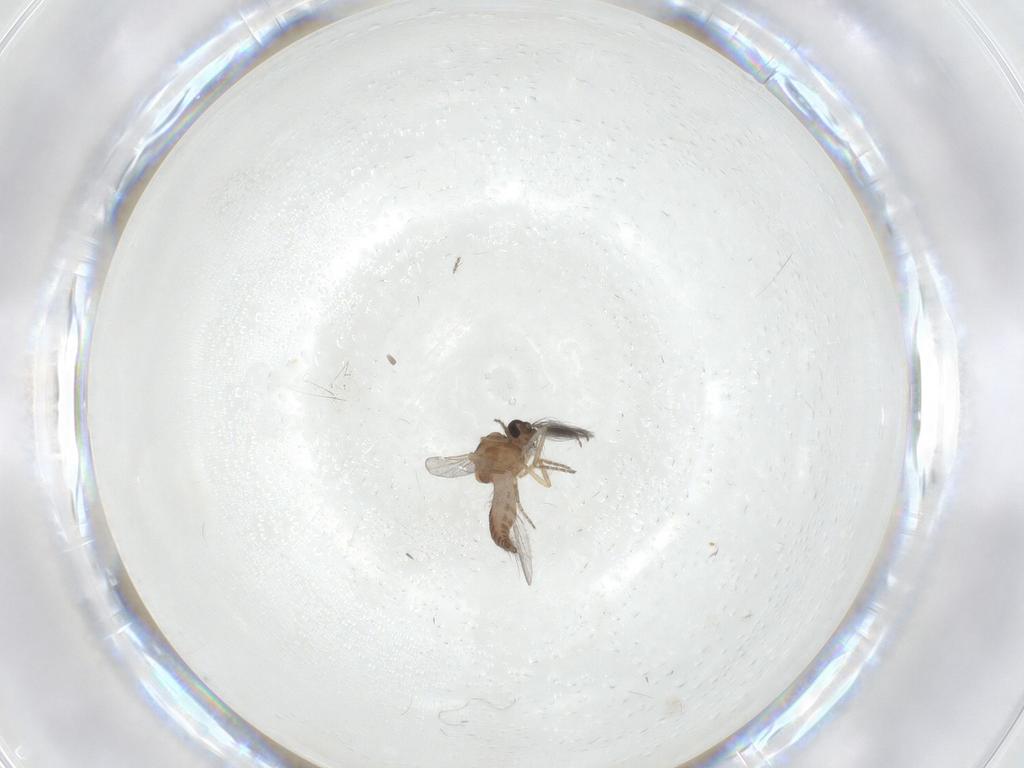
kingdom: Animalia
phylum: Arthropoda
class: Insecta
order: Diptera
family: Ceratopogonidae
